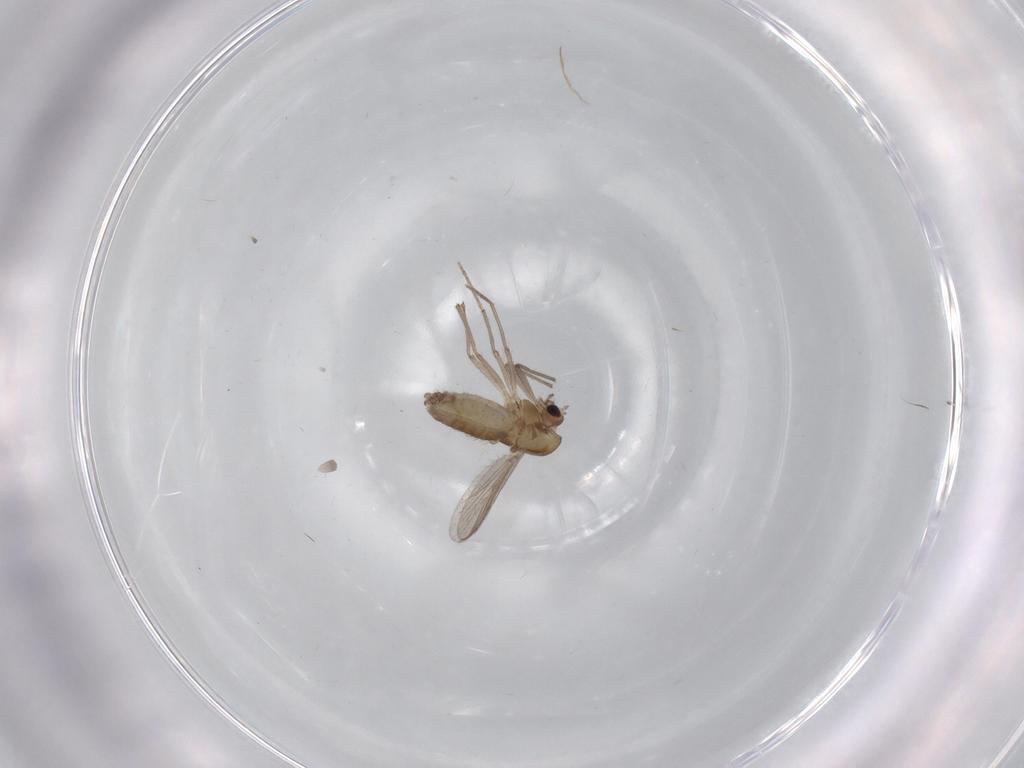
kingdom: Animalia
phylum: Arthropoda
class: Insecta
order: Diptera
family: Chironomidae
